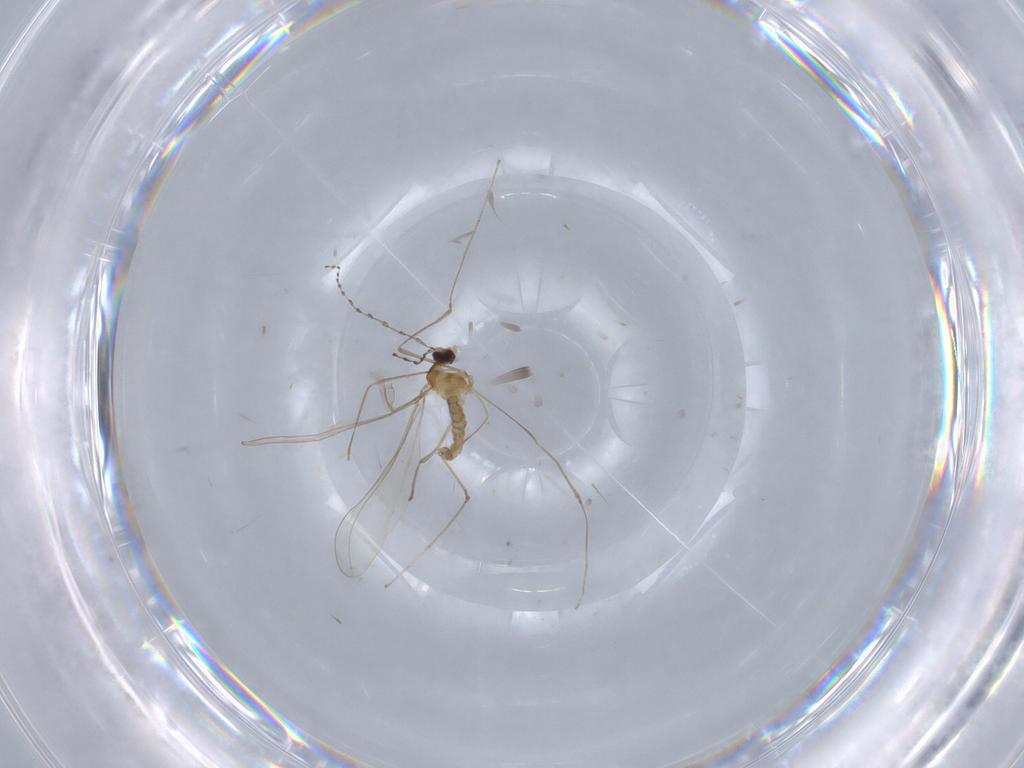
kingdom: Animalia
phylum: Arthropoda
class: Insecta
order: Diptera
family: Cecidomyiidae
